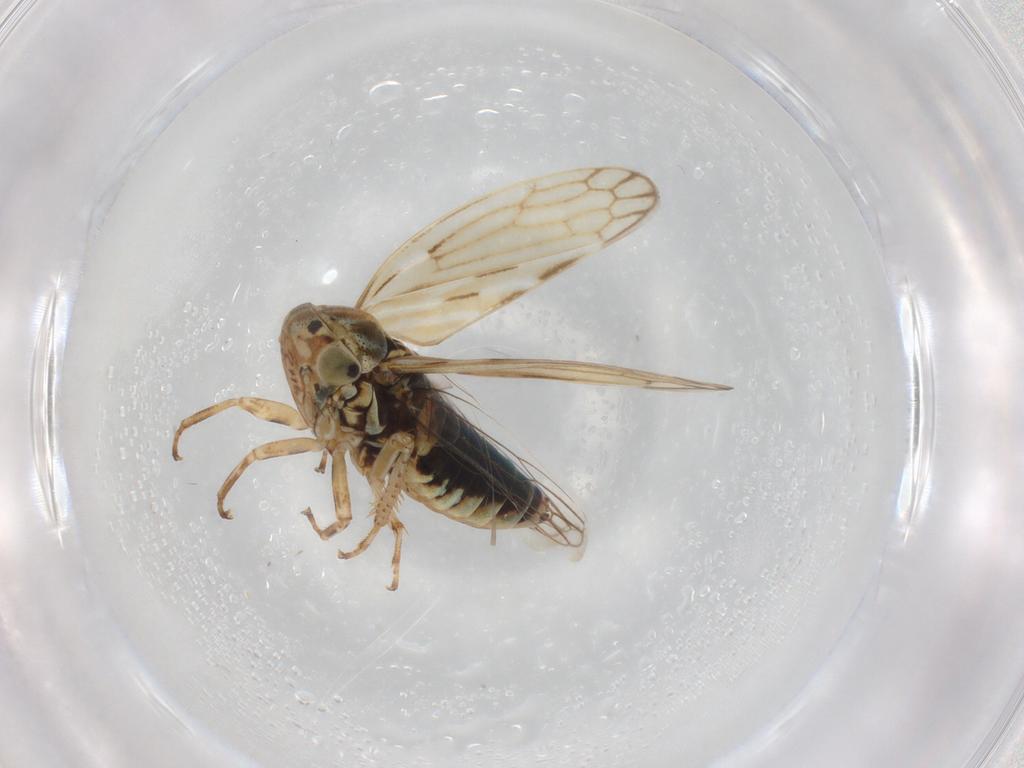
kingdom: Animalia
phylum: Arthropoda
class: Insecta
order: Hemiptera
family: Cicadellidae
